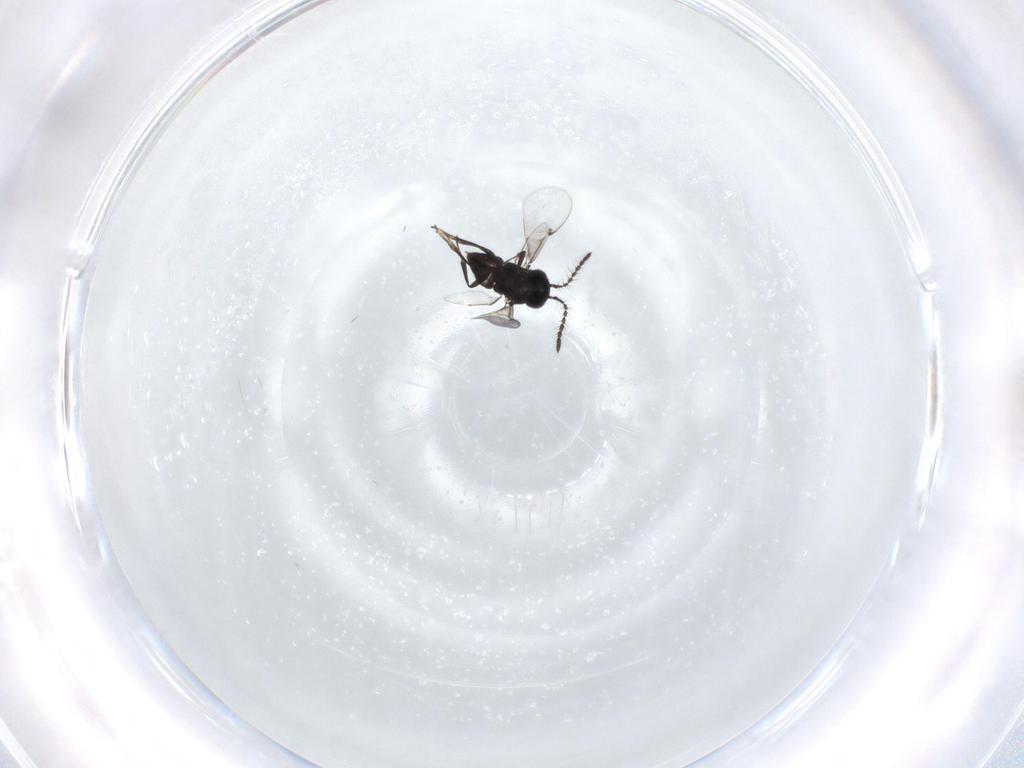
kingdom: Animalia
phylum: Arthropoda
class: Insecta
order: Hymenoptera
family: Encyrtidae
